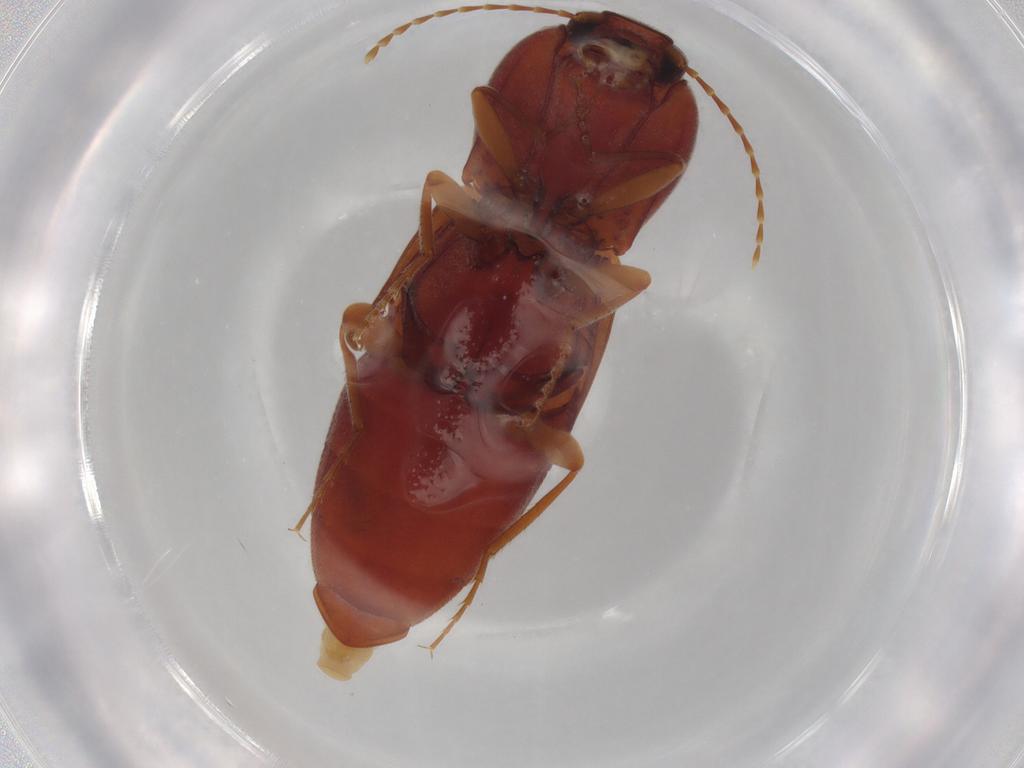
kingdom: Animalia
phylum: Arthropoda
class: Insecta
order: Coleoptera
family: Elateridae
